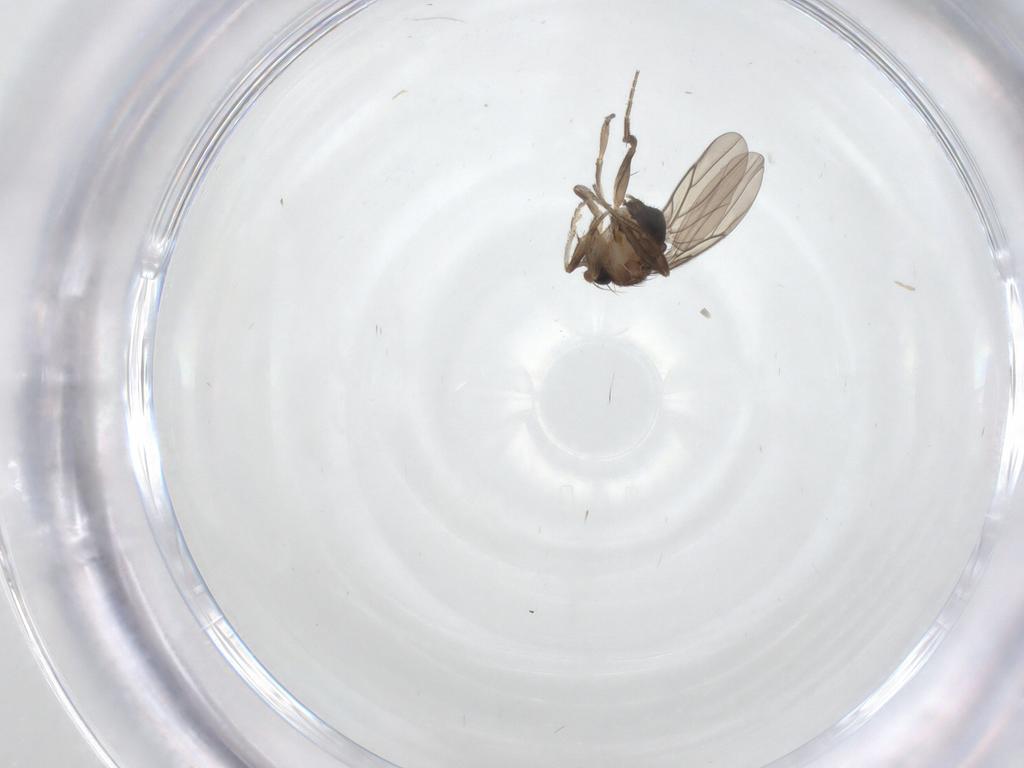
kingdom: Animalia
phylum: Arthropoda
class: Insecta
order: Diptera
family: Phoridae
